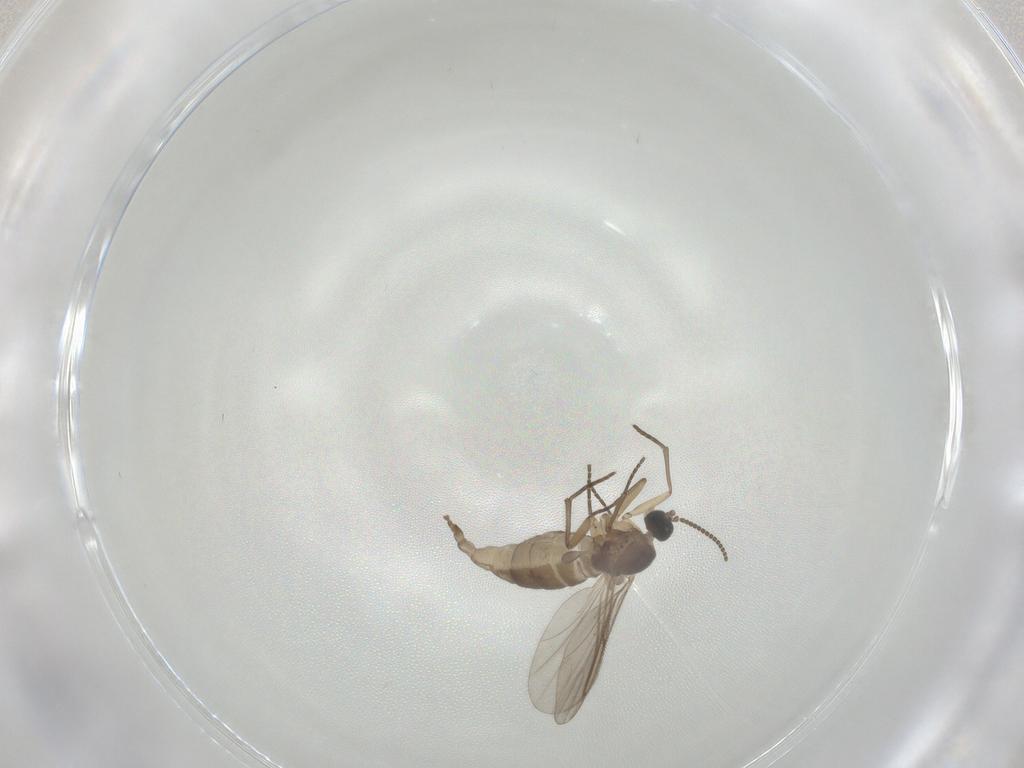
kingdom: Animalia
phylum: Arthropoda
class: Insecta
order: Diptera
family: Sciaridae
